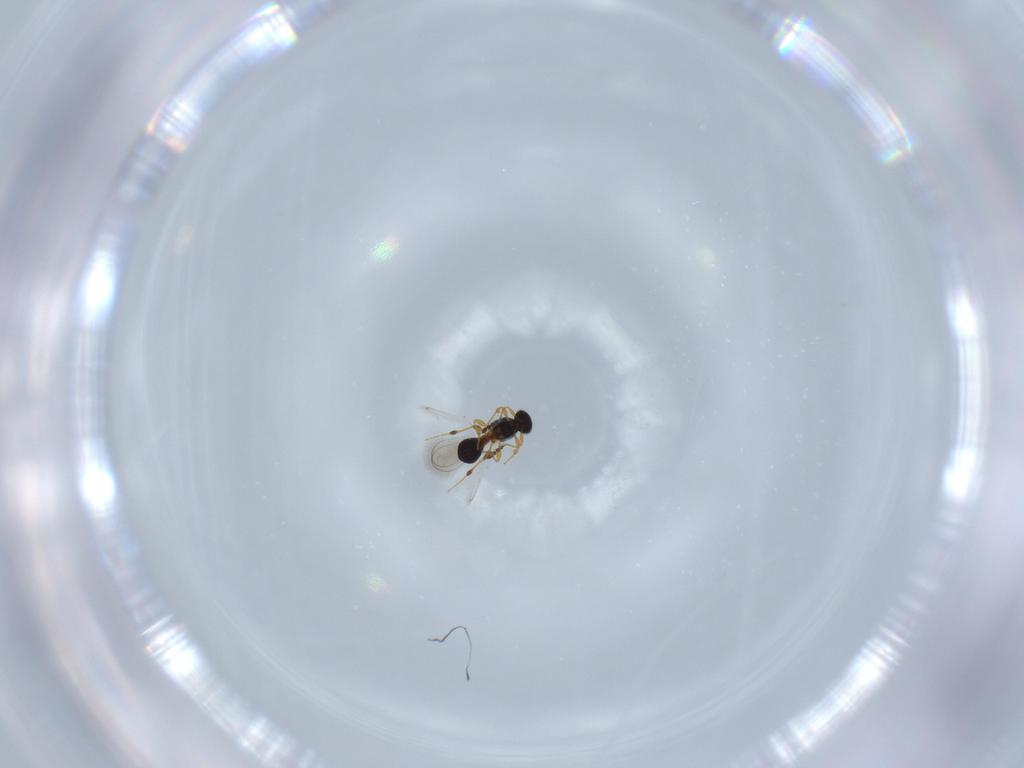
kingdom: Animalia
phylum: Arthropoda
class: Insecta
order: Hymenoptera
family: Platygastridae
